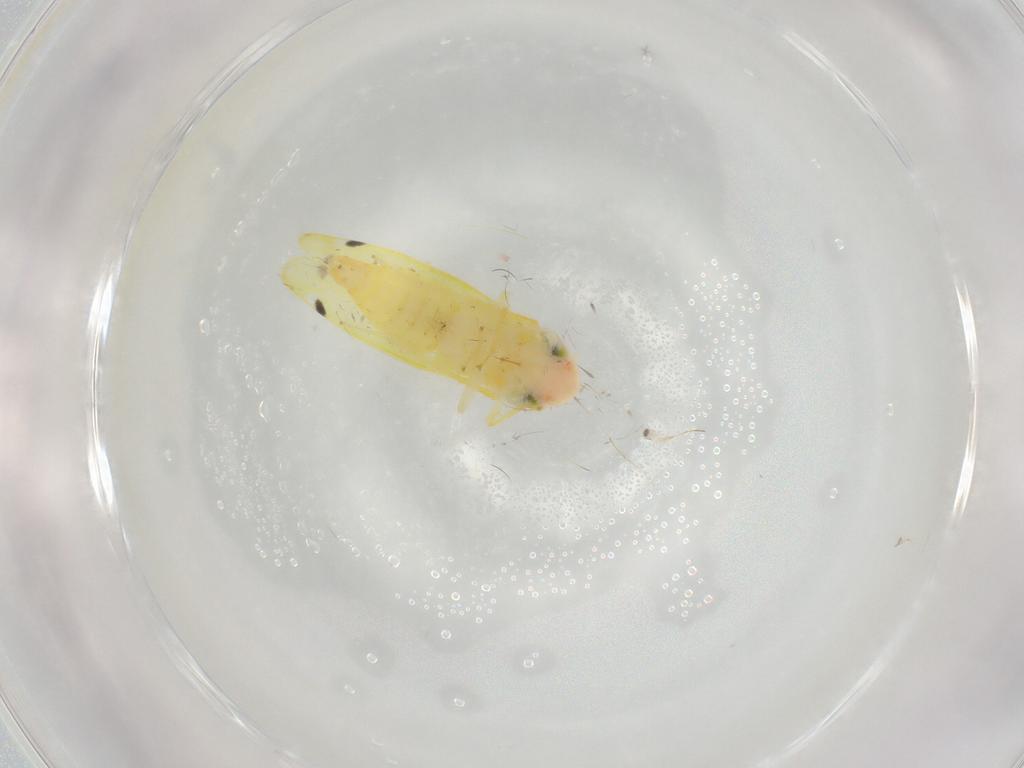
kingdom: Animalia
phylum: Arthropoda
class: Insecta
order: Hemiptera
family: Cicadellidae
